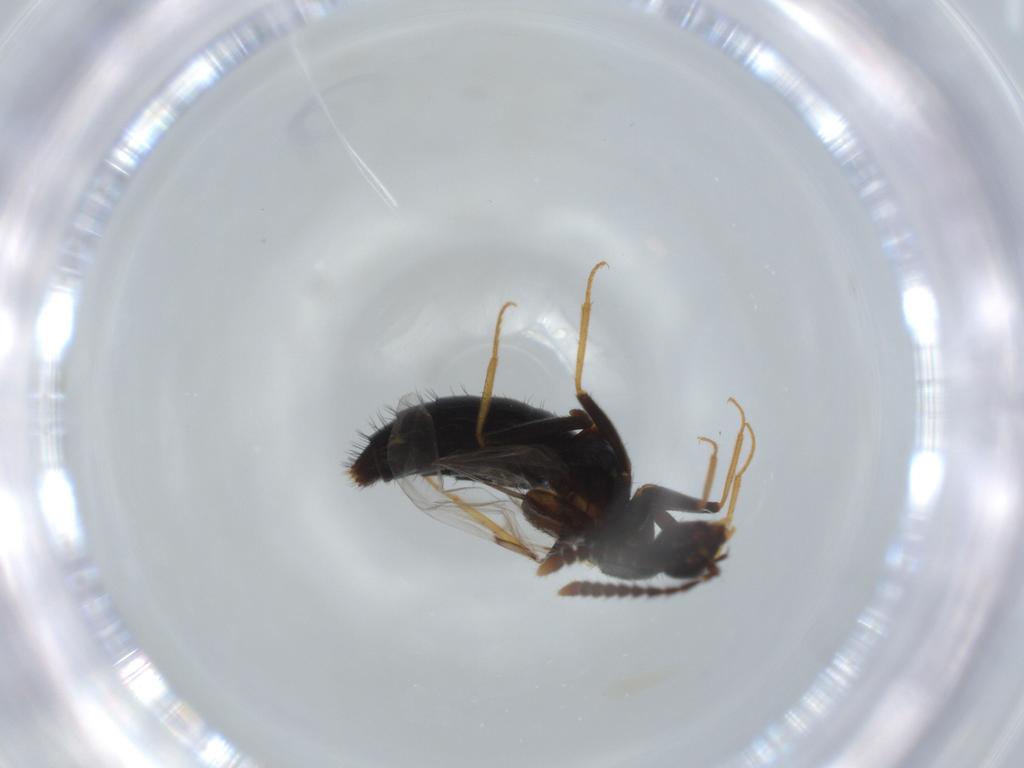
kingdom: Animalia
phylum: Arthropoda
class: Insecta
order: Coleoptera
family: Staphylinidae
